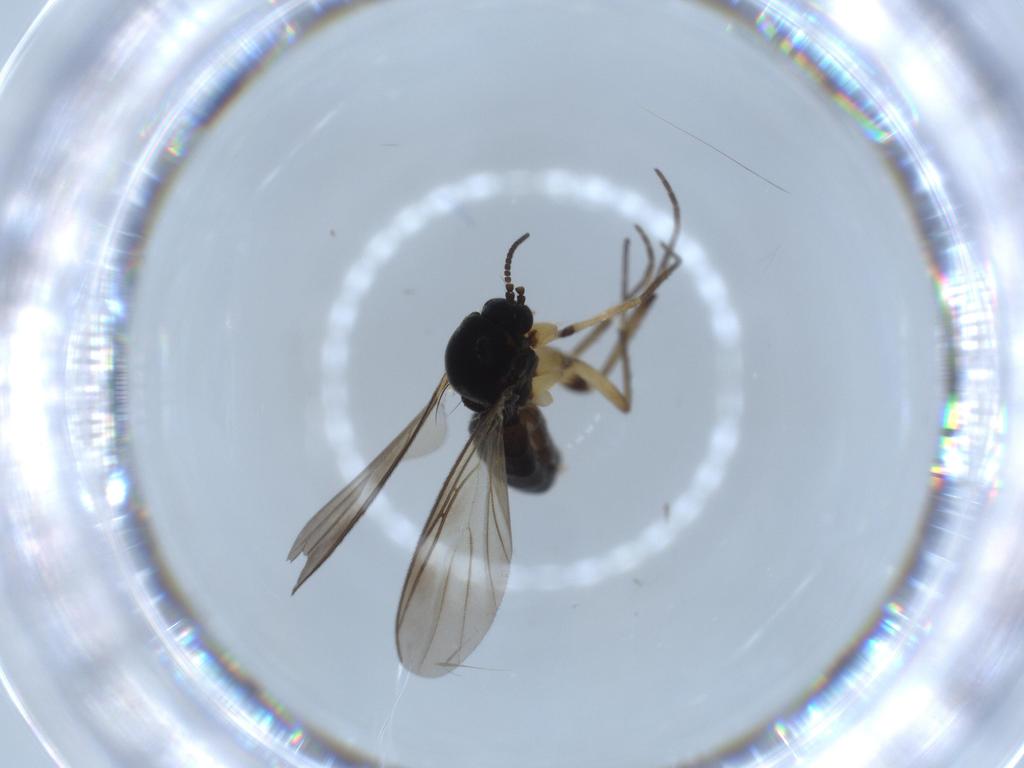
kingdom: Animalia
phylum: Arthropoda
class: Insecta
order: Diptera
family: Mycetophilidae
